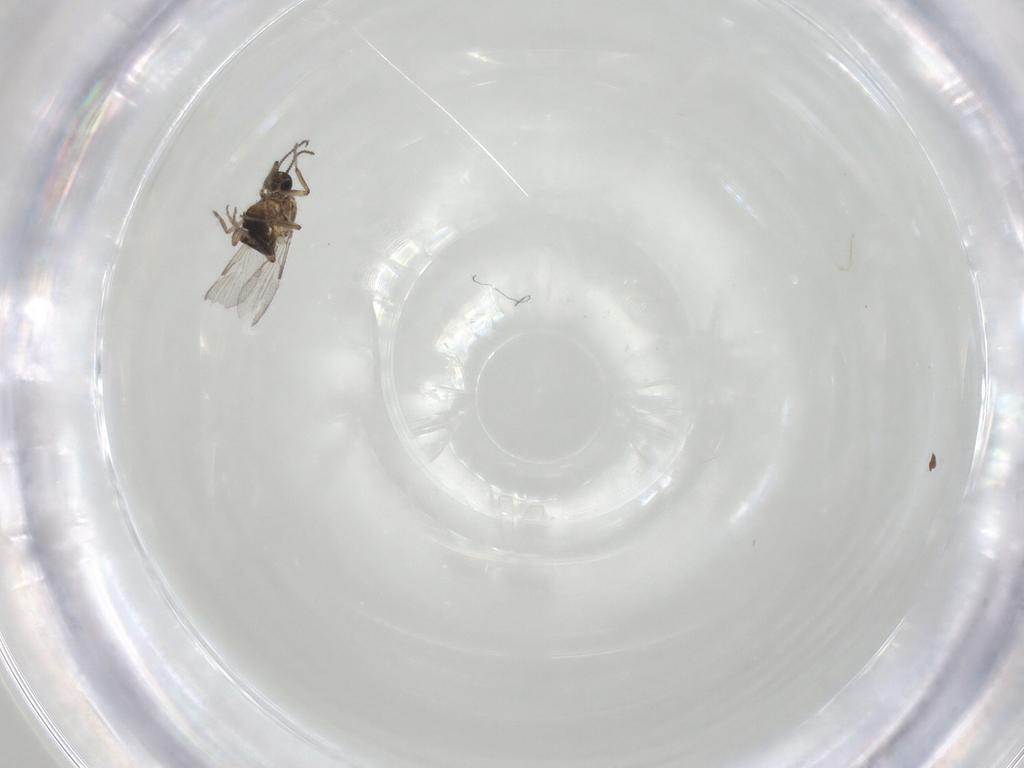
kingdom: Animalia
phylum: Arthropoda
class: Insecta
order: Diptera
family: Ceratopogonidae
